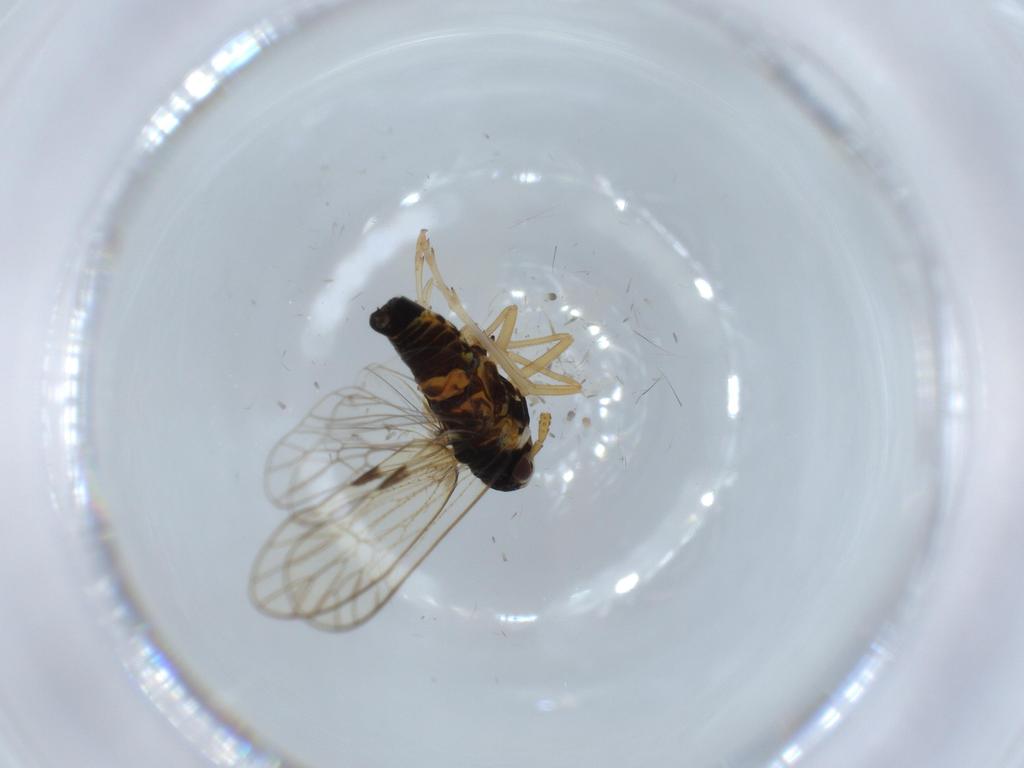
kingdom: Animalia
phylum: Arthropoda
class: Insecta
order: Hemiptera
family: Cicadellidae
